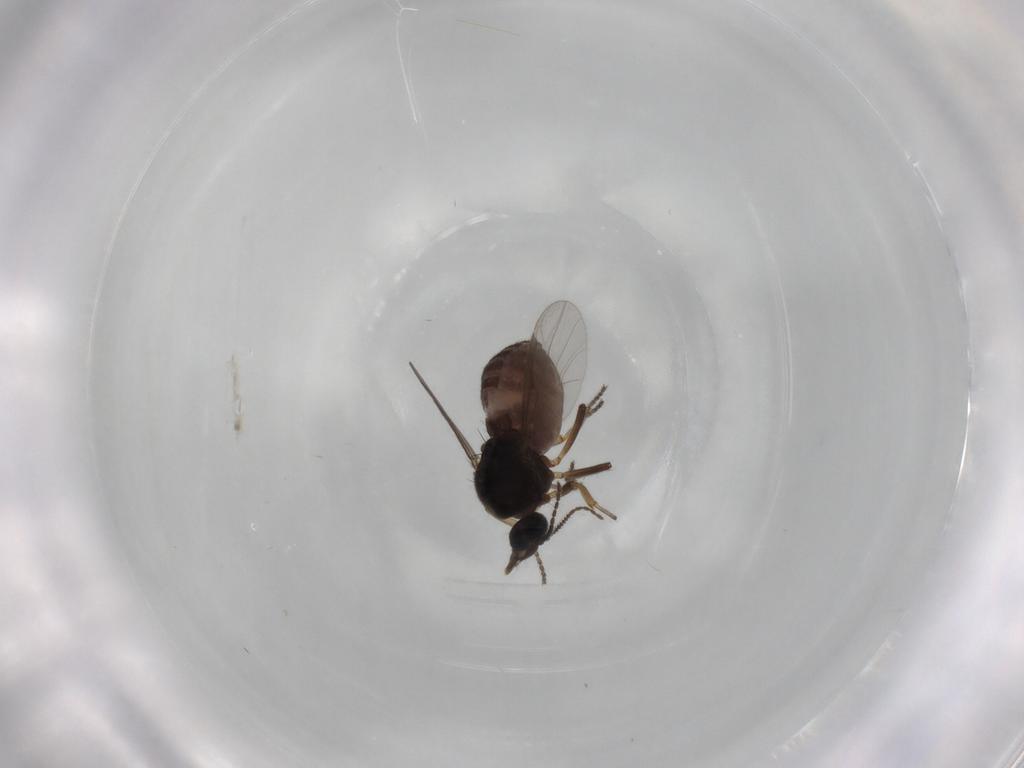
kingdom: Animalia
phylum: Arthropoda
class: Insecta
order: Diptera
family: Ceratopogonidae
